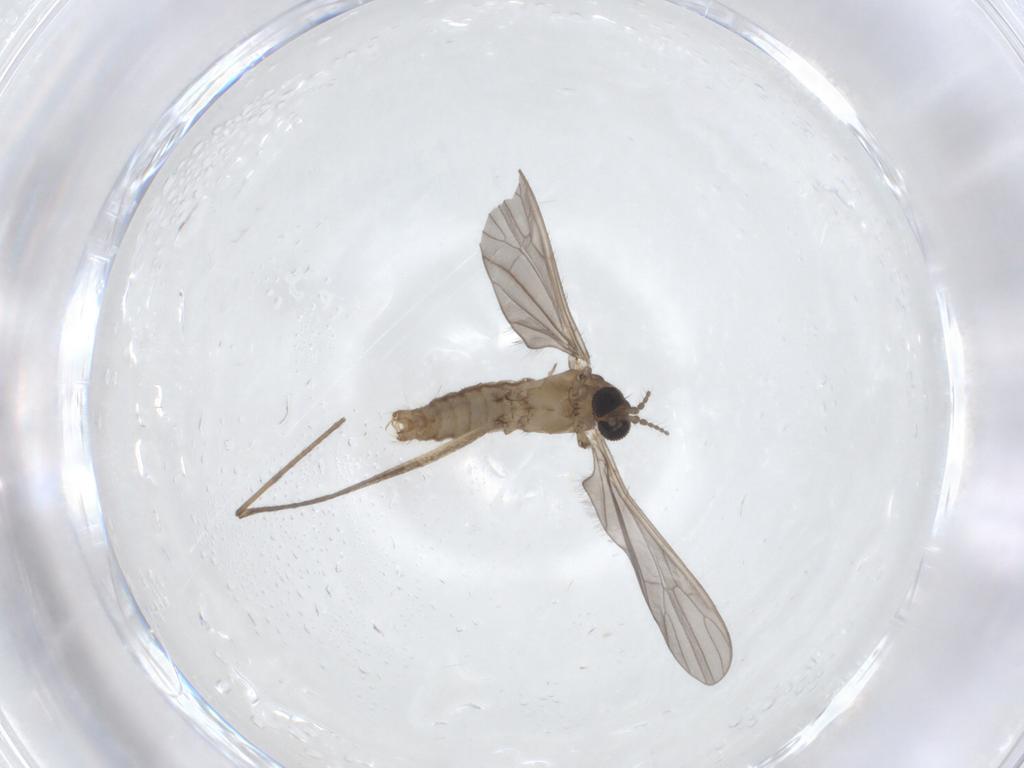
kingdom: Animalia
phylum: Arthropoda
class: Insecta
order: Diptera
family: Limoniidae
